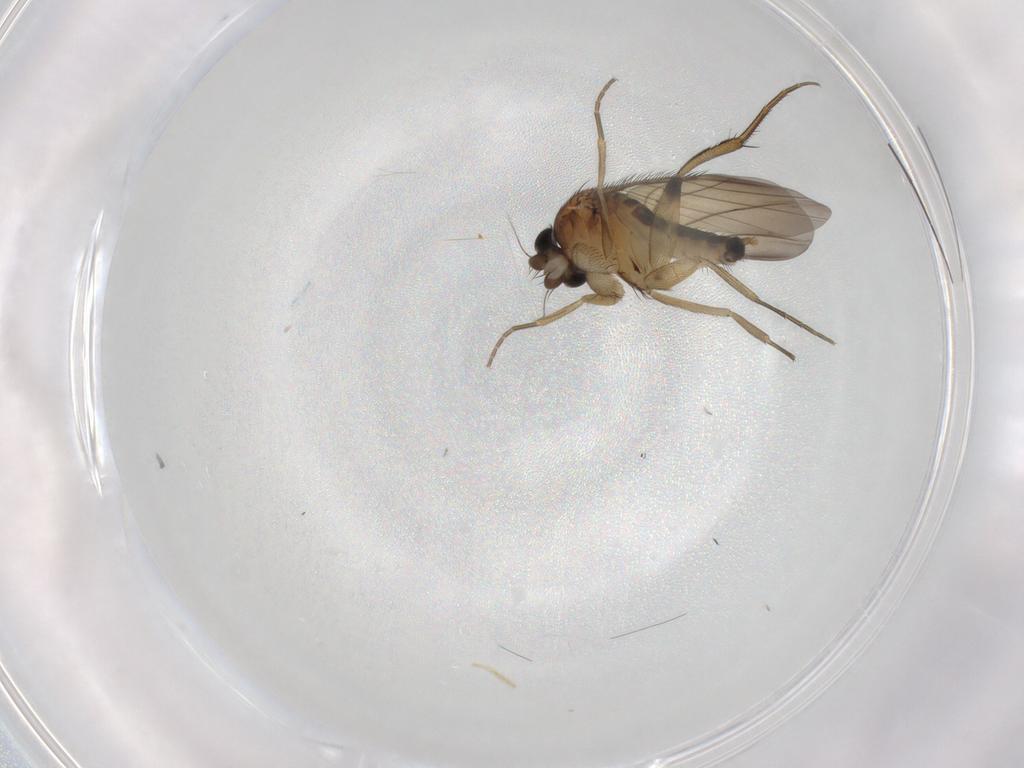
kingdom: Animalia
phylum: Arthropoda
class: Insecta
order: Diptera
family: Phoridae
